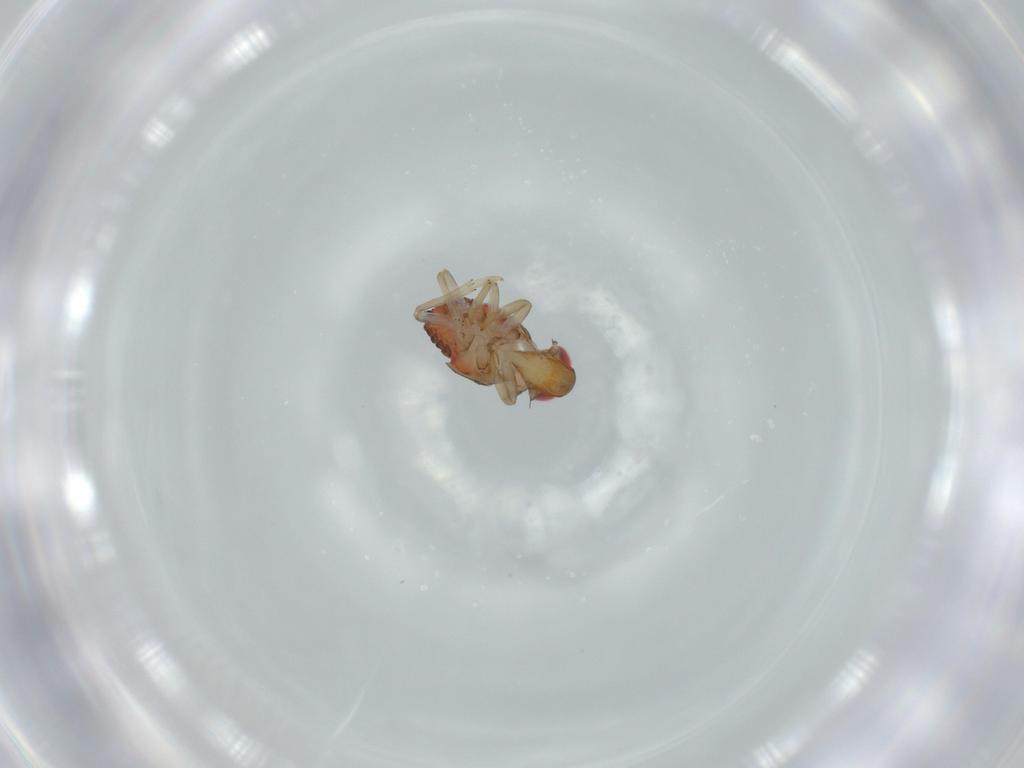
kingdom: Animalia
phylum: Arthropoda
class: Insecta
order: Hemiptera
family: Issidae
